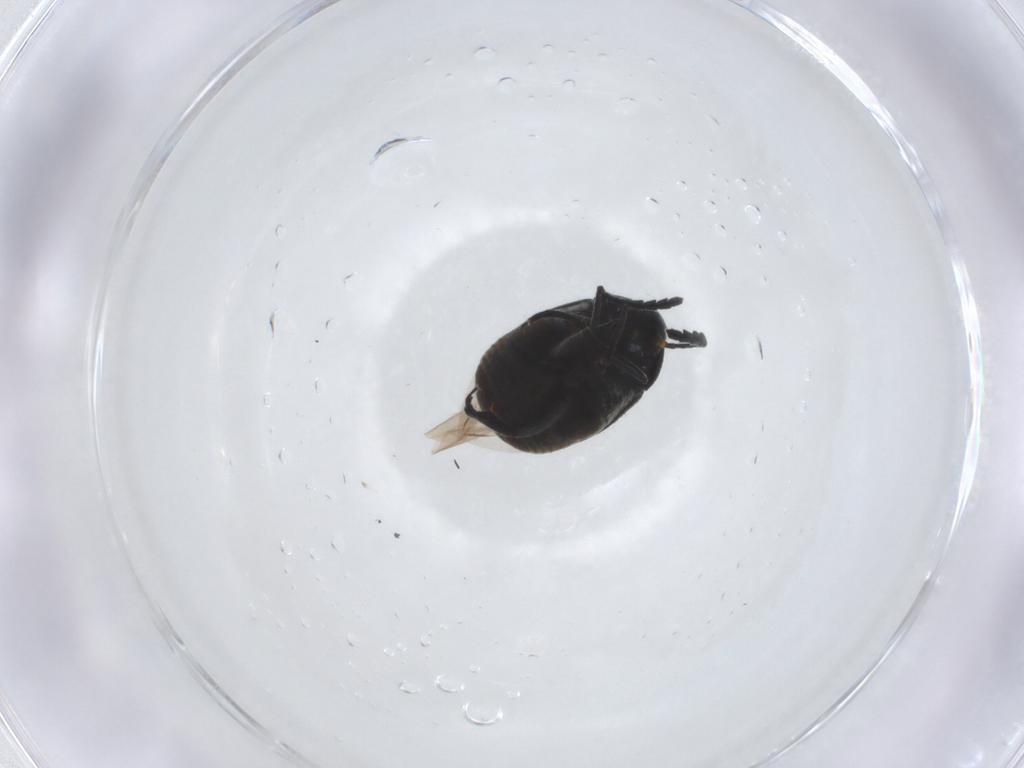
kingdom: Animalia
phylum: Arthropoda
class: Insecta
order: Coleoptera
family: Chrysomelidae
